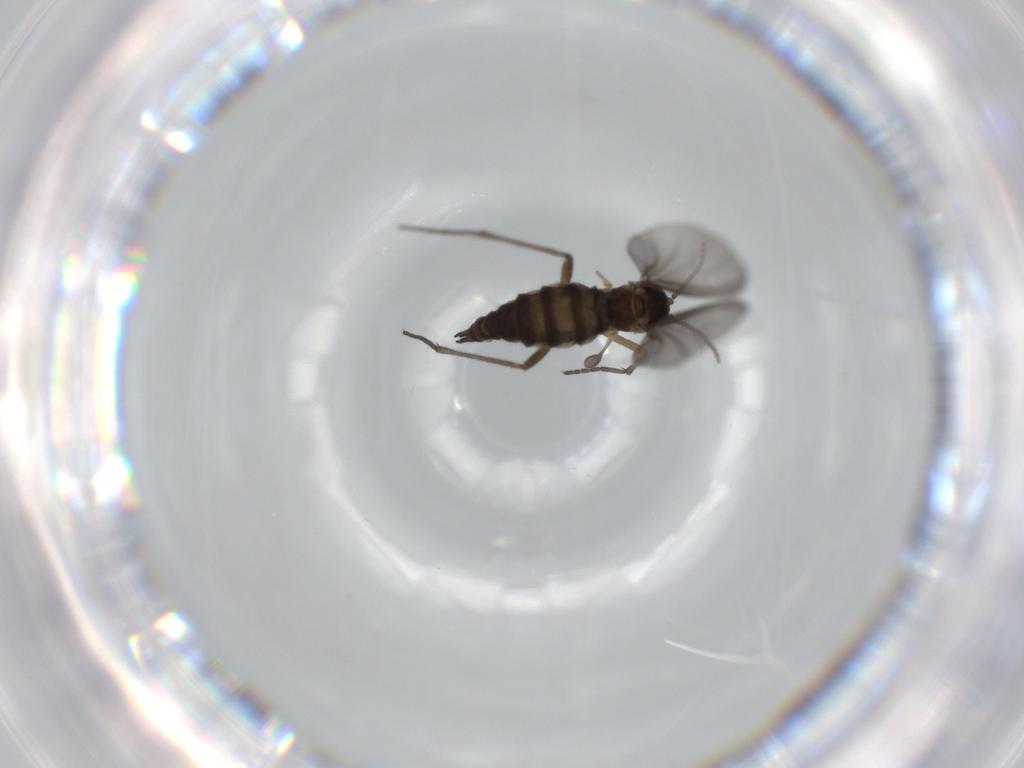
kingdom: Animalia
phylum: Arthropoda
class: Insecta
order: Diptera
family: Sciaridae
